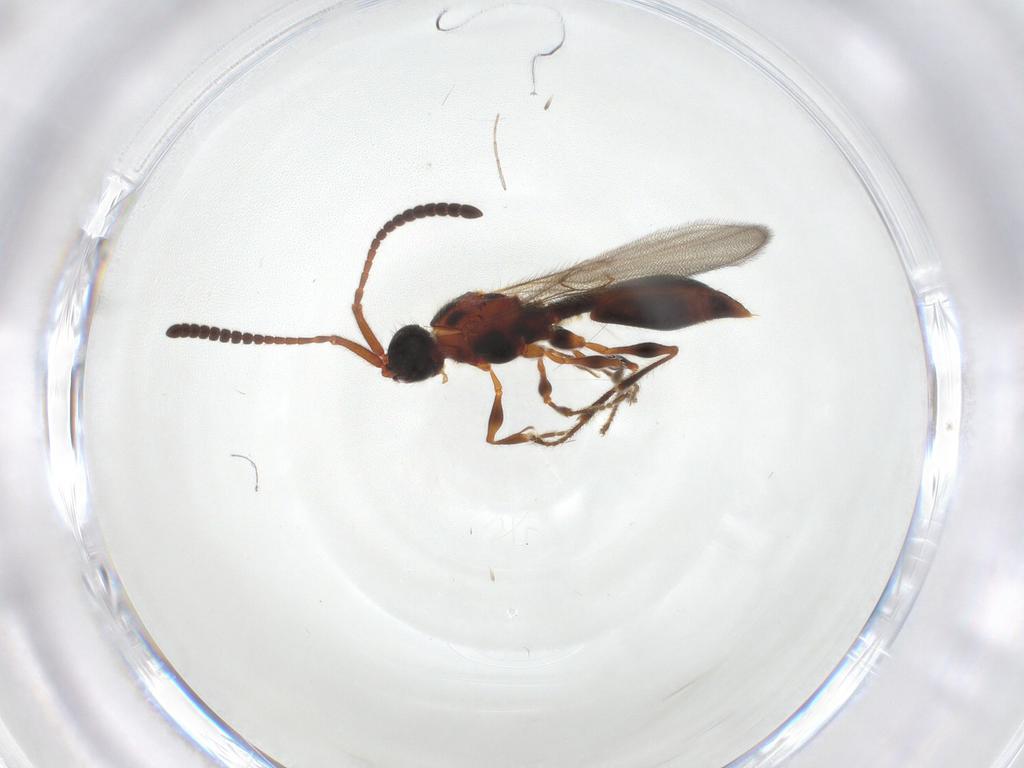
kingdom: Animalia
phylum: Arthropoda
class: Insecta
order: Hymenoptera
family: Diapriidae
